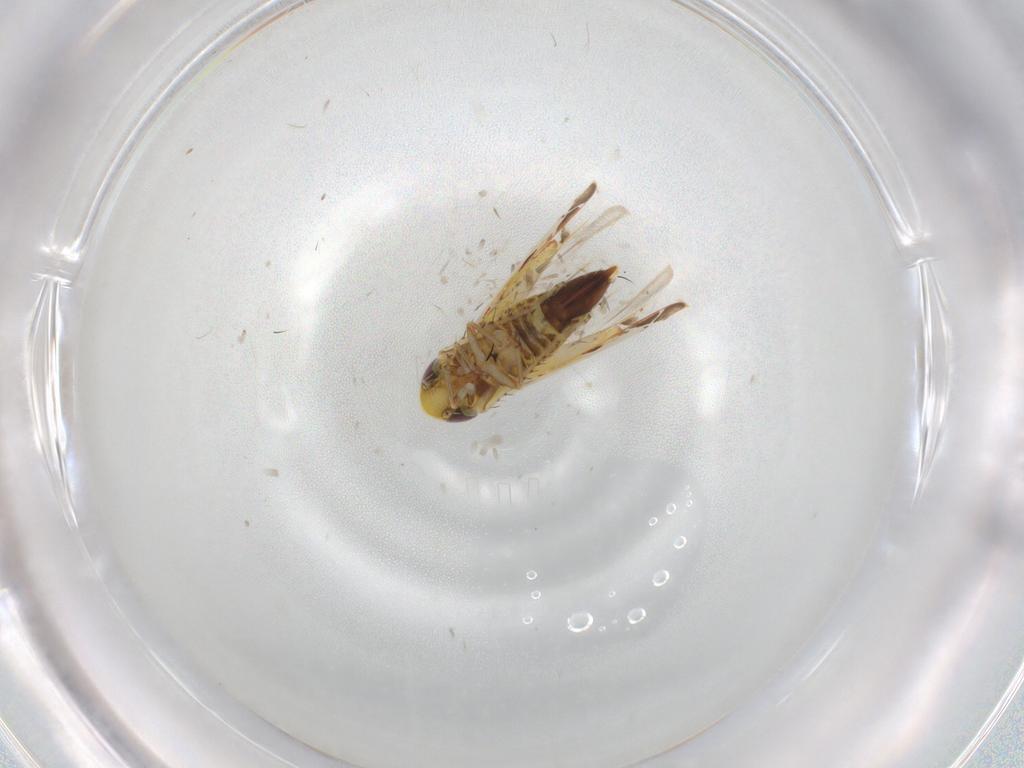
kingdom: Animalia
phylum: Arthropoda
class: Insecta
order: Hemiptera
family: Cicadellidae
